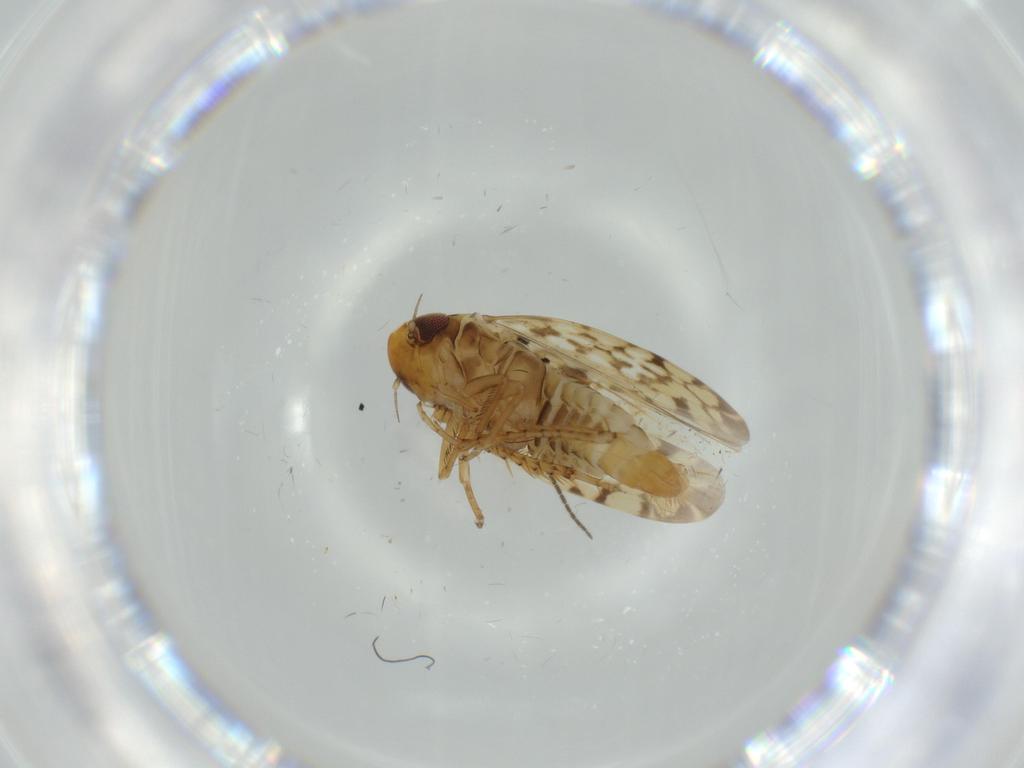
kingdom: Animalia
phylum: Arthropoda
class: Insecta
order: Hemiptera
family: Cicadellidae
